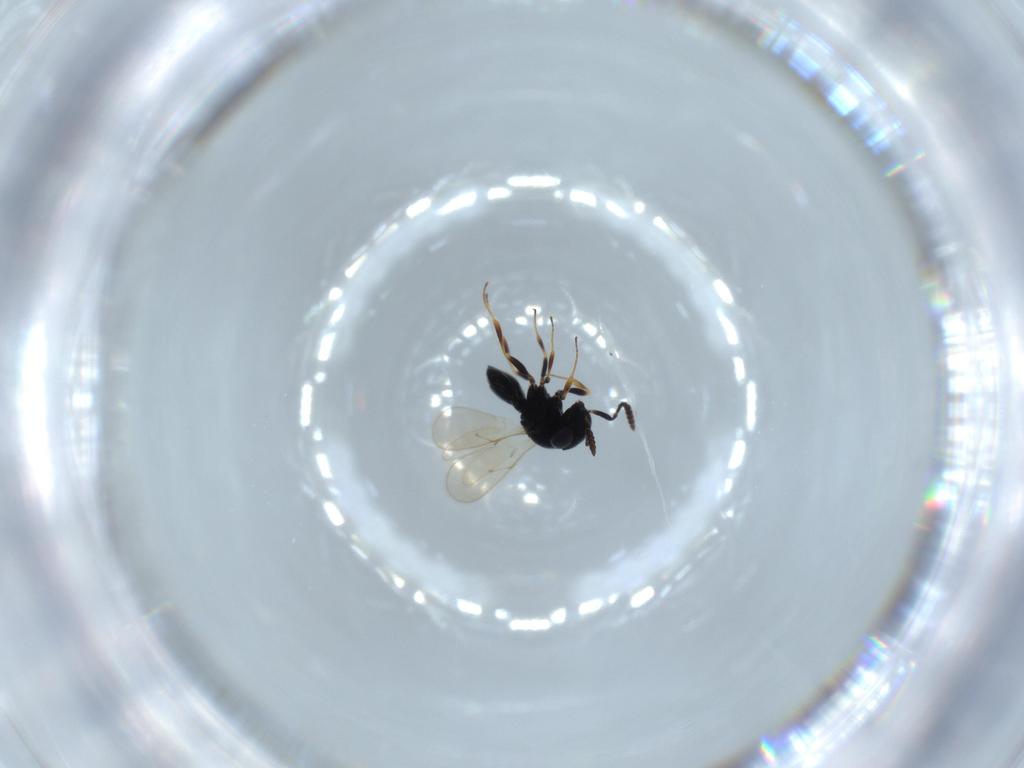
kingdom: Animalia
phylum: Arthropoda
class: Insecta
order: Hymenoptera
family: Scelionidae
